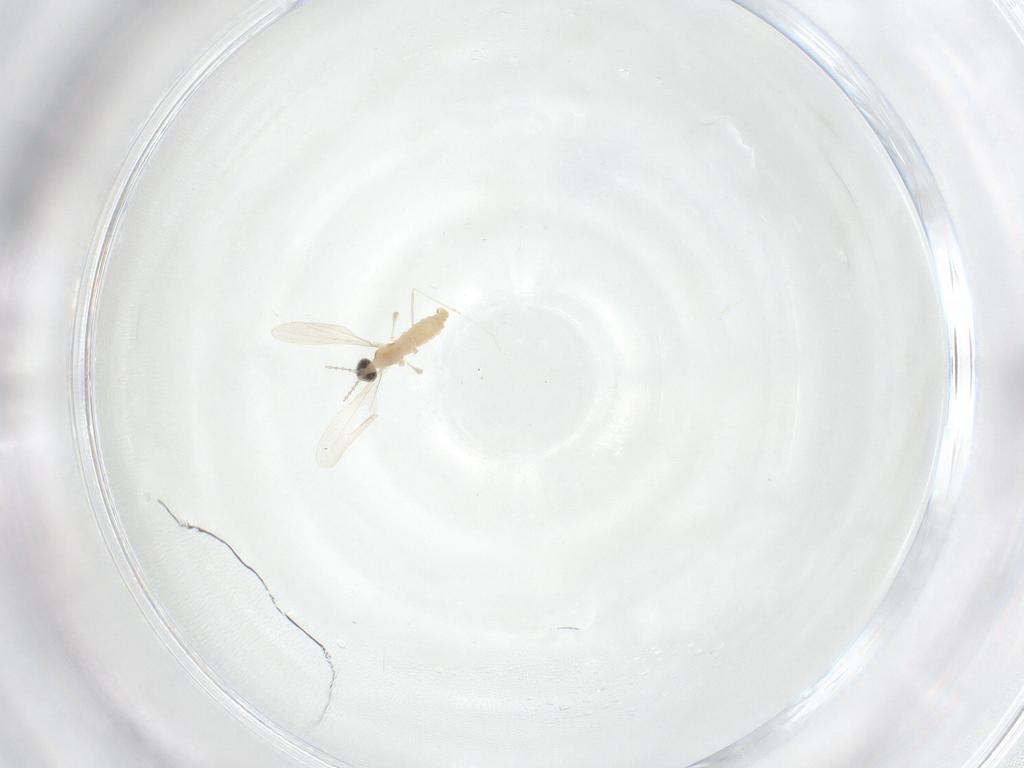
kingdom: Animalia
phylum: Arthropoda
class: Insecta
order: Diptera
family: Cecidomyiidae
